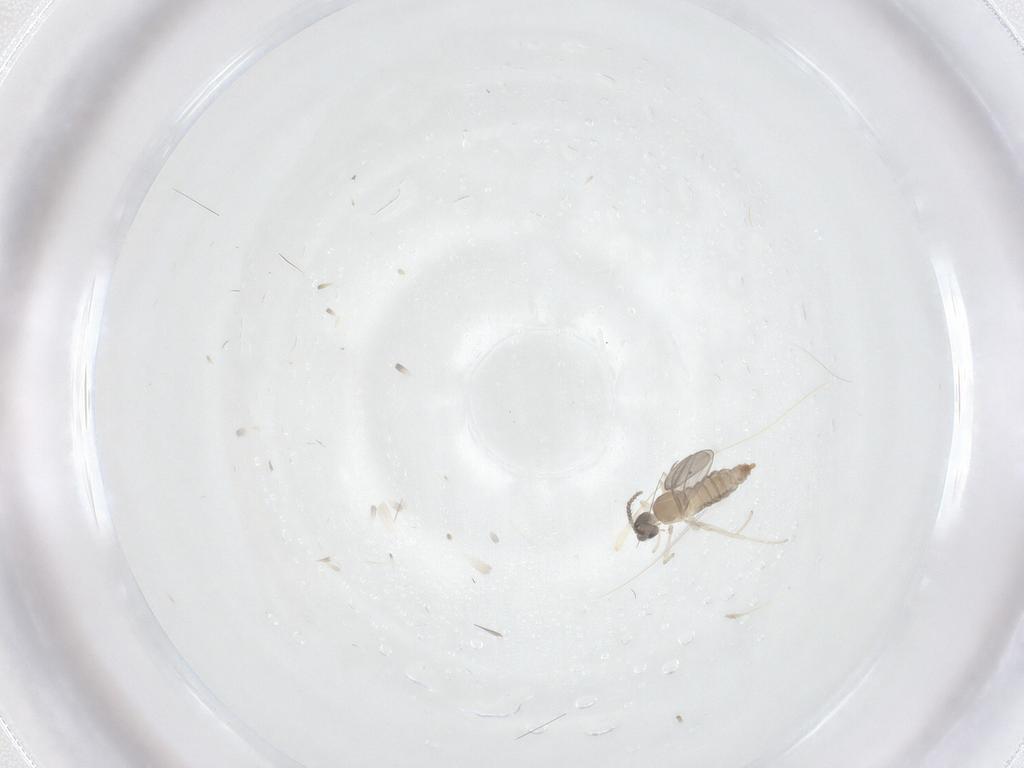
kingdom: Animalia
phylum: Arthropoda
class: Insecta
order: Diptera
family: Cecidomyiidae
